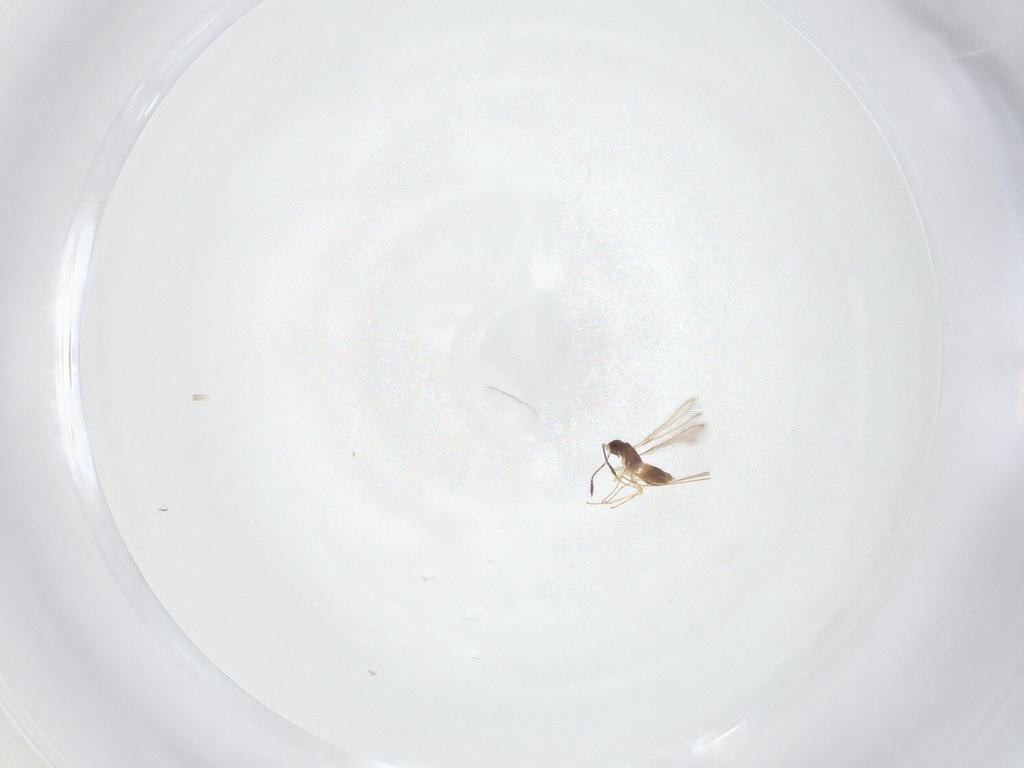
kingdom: Animalia
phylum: Arthropoda
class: Insecta
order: Hymenoptera
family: Mymaridae
